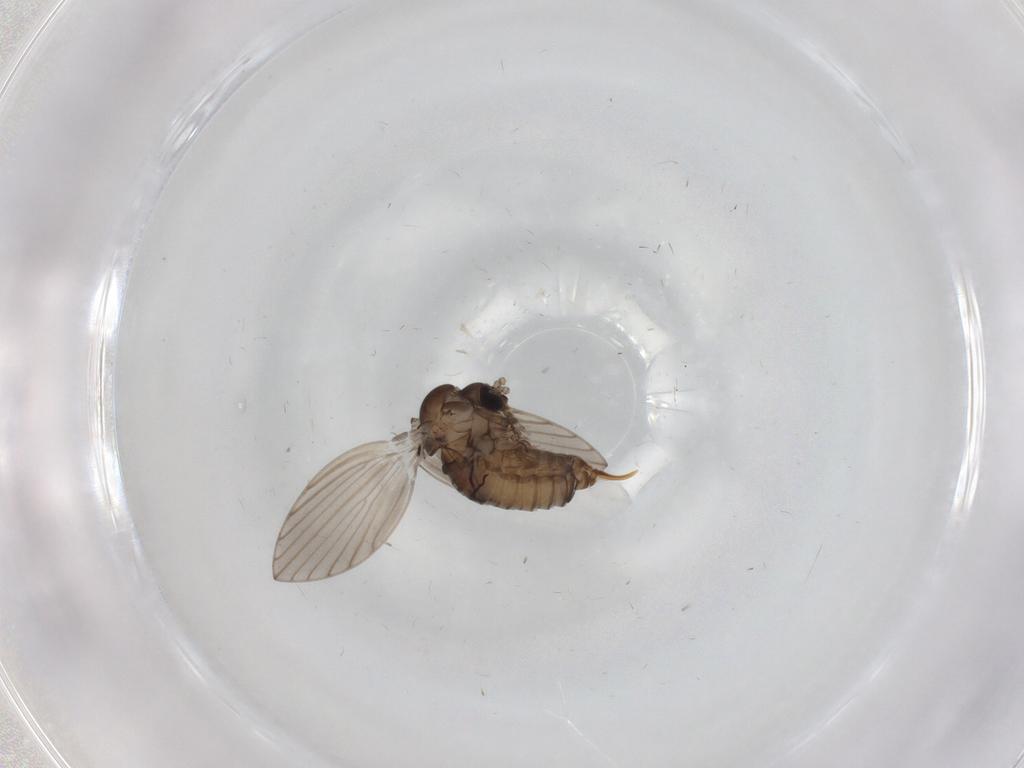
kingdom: Animalia
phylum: Arthropoda
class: Insecta
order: Diptera
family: Psychodidae
